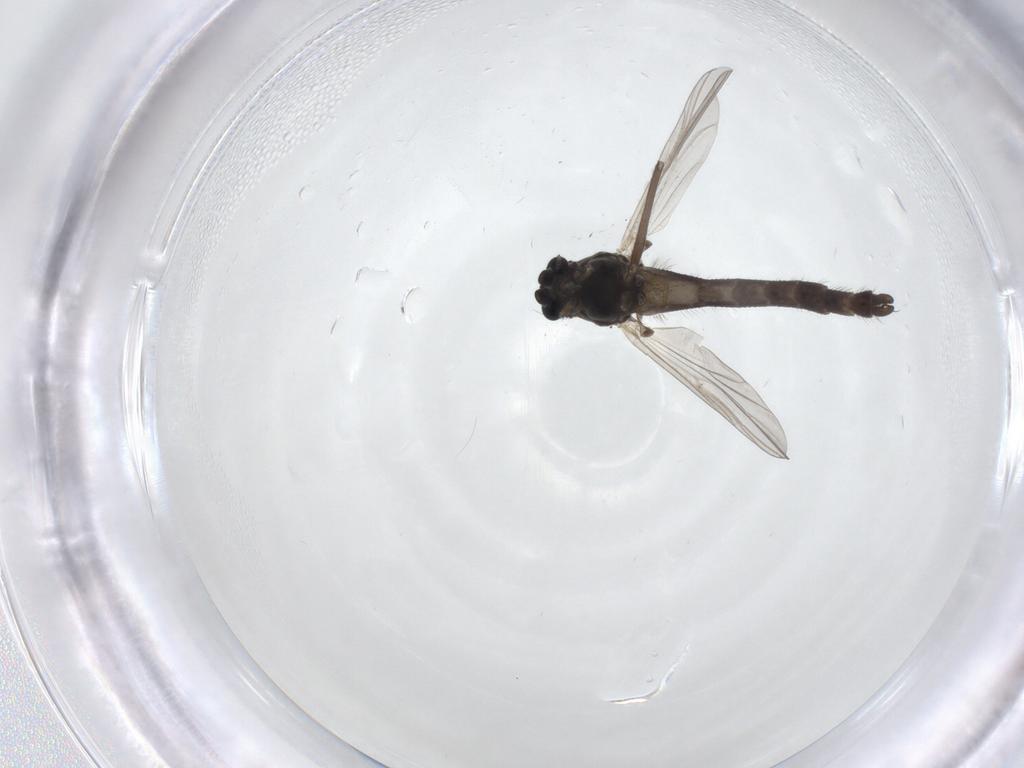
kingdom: Animalia
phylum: Arthropoda
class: Insecta
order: Diptera
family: Chironomidae
